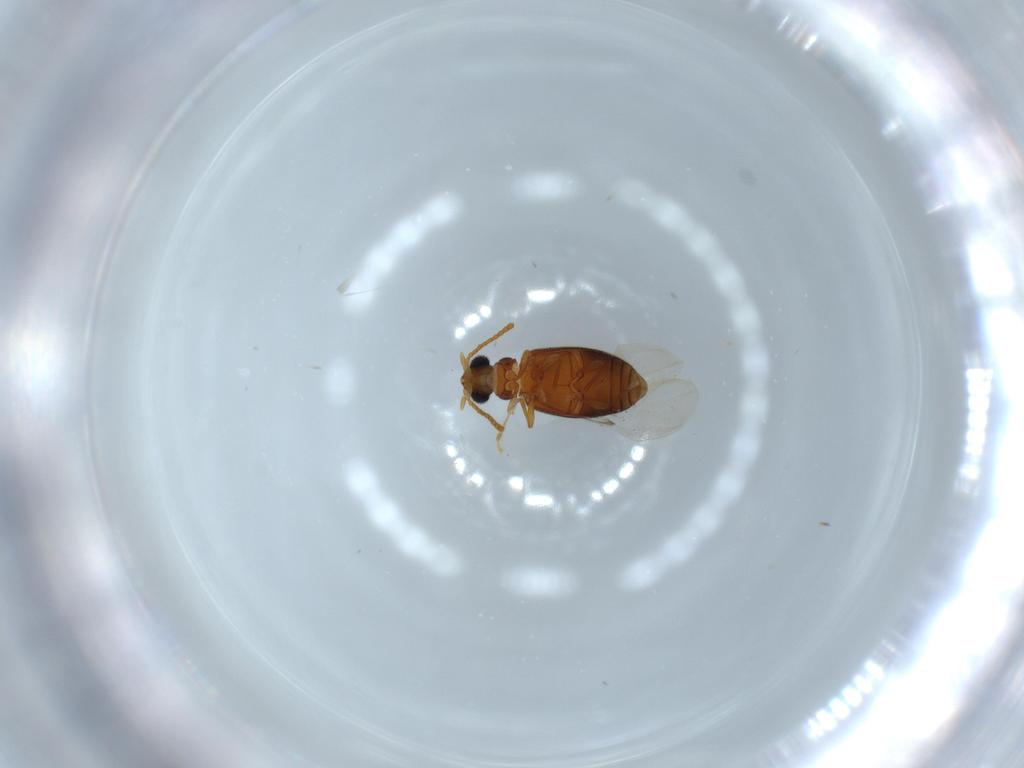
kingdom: Animalia
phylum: Arthropoda
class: Insecta
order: Coleoptera
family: Aderidae
